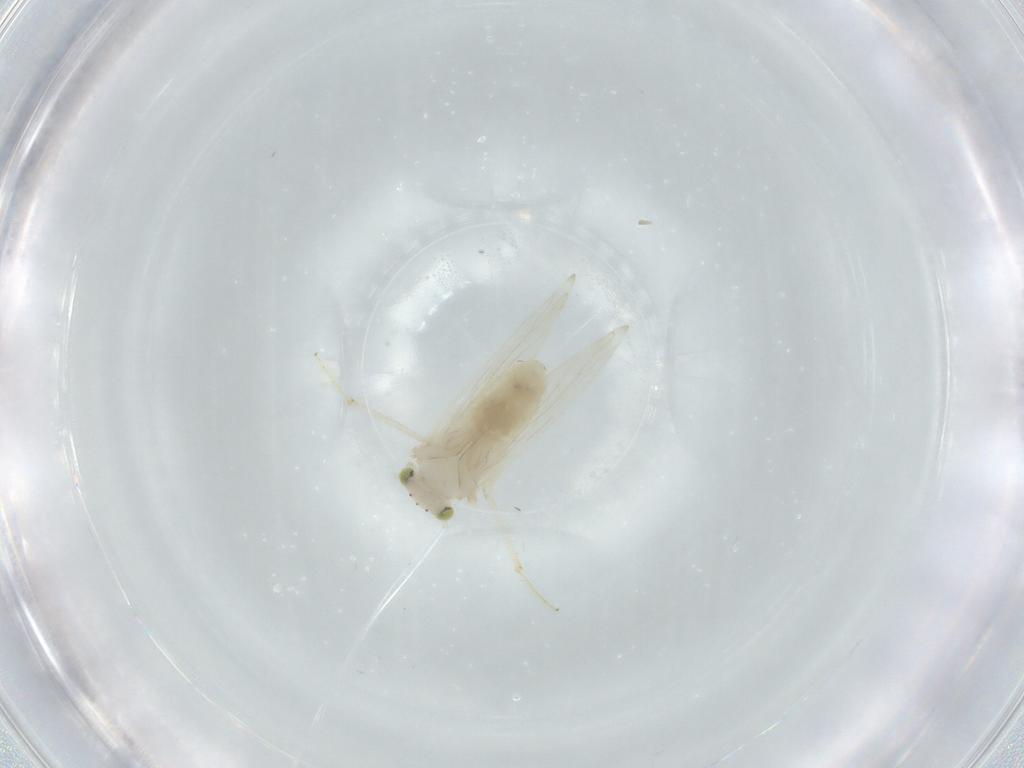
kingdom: Animalia
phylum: Arthropoda
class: Insecta
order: Psocodea
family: Lepidopsocidae
